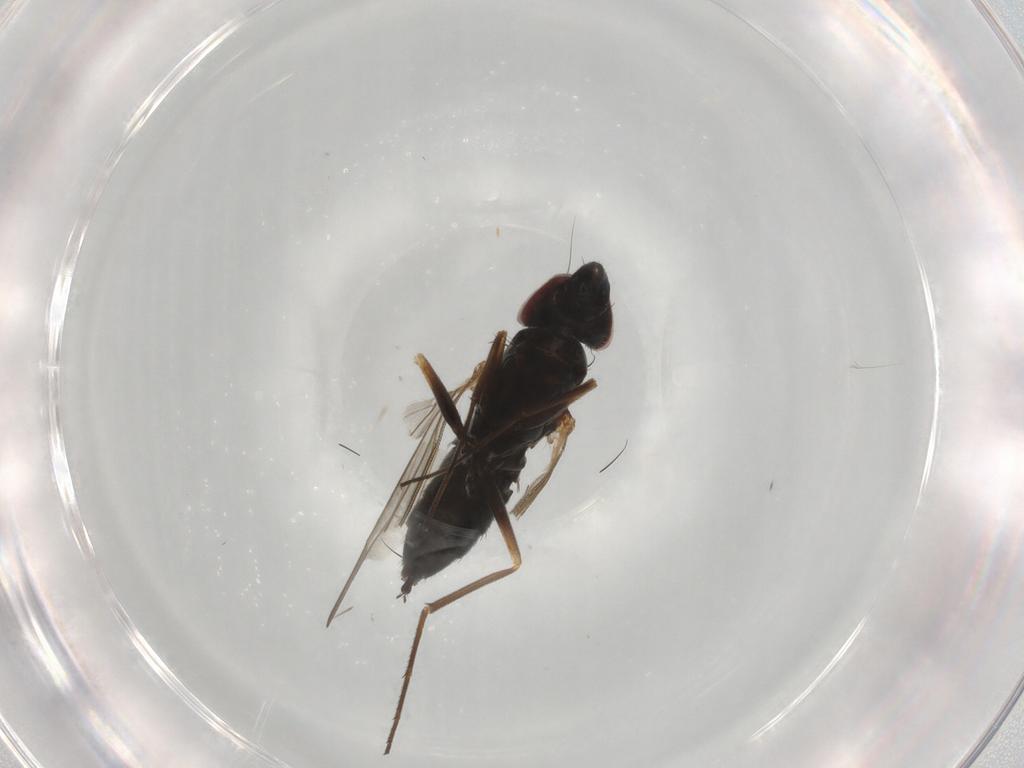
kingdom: Animalia
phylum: Arthropoda
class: Insecta
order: Diptera
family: Dolichopodidae
